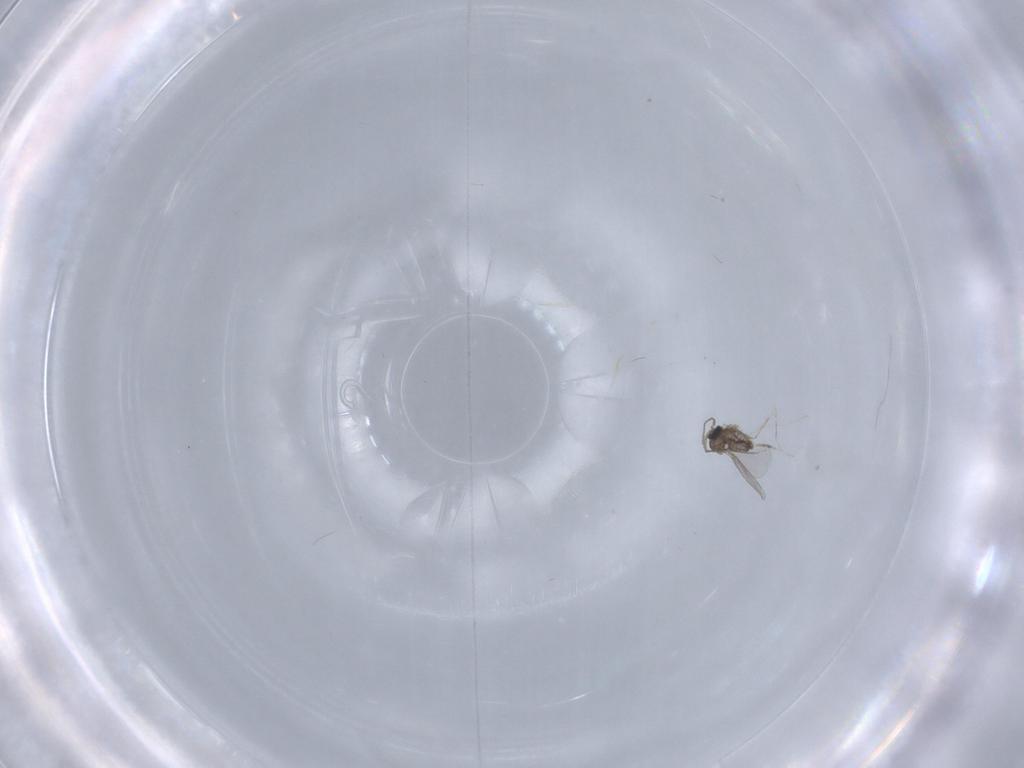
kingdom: Animalia
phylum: Arthropoda
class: Insecta
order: Diptera
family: Cecidomyiidae
